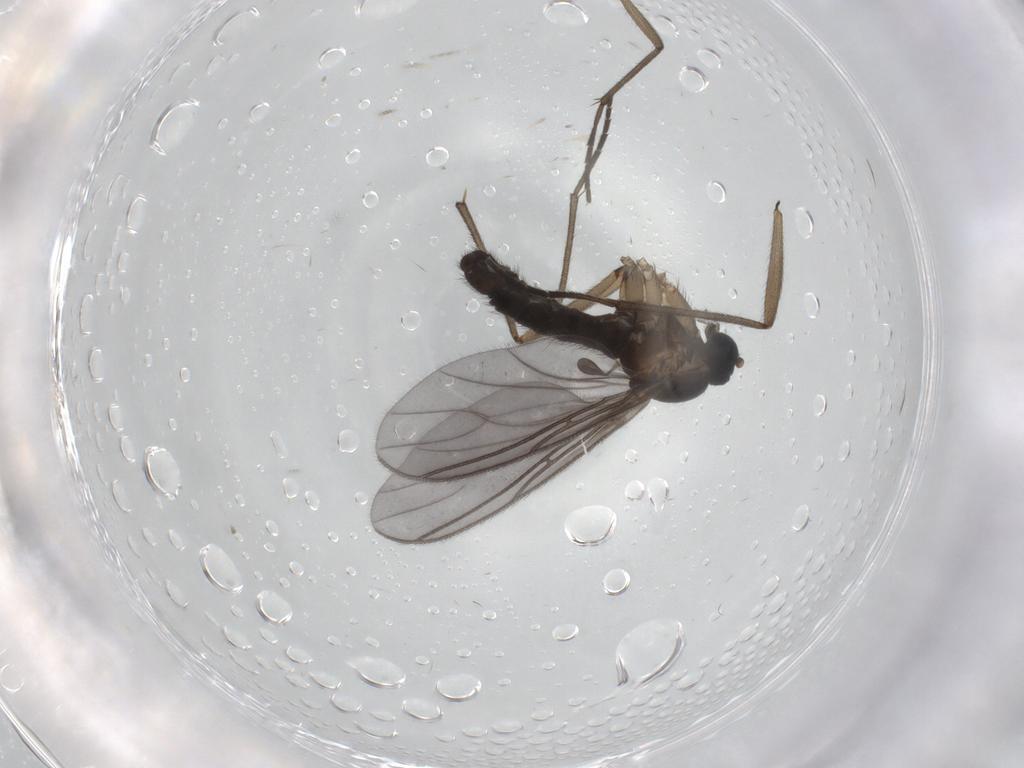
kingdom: Animalia
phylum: Arthropoda
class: Insecta
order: Diptera
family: Sciaridae
